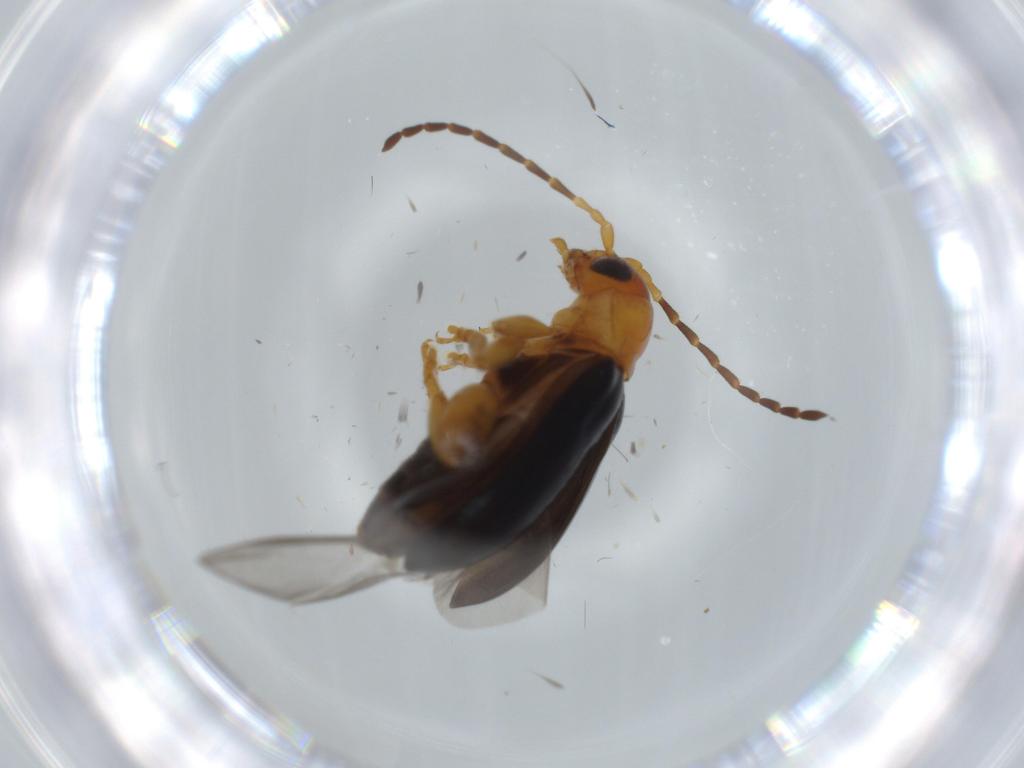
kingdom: Animalia
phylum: Arthropoda
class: Insecta
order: Coleoptera
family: Chrysomelidae
